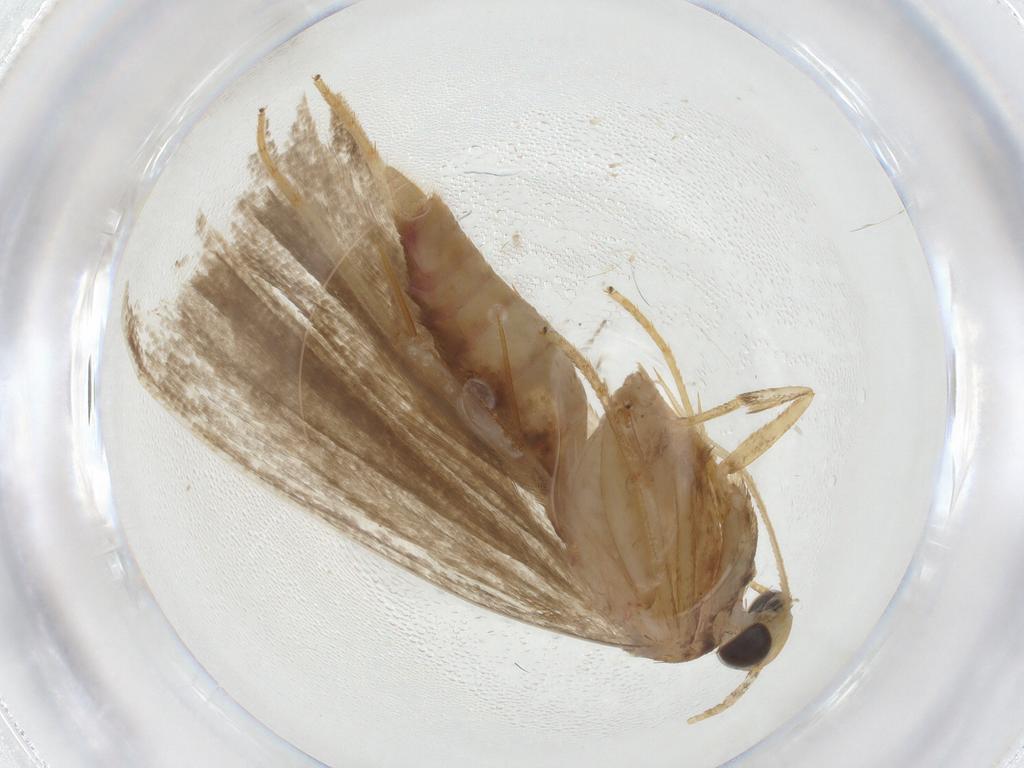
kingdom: Animalia
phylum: Arthropoda
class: Insecta
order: Lepidoptera
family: Autostichidae
